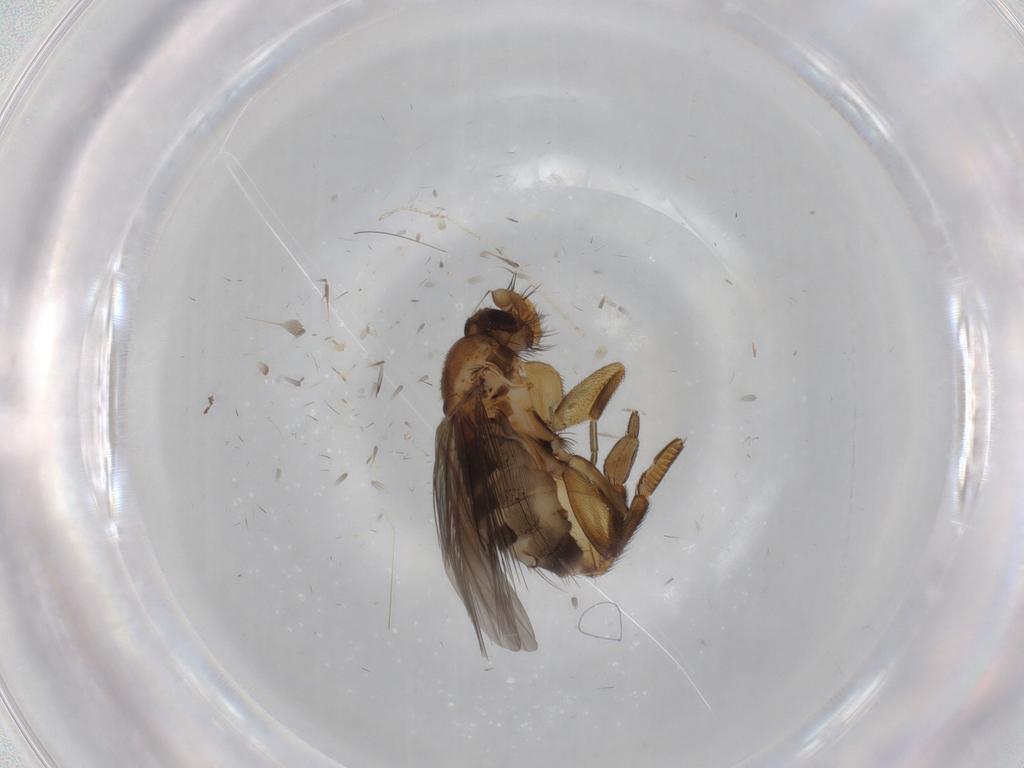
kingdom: Animalia
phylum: Arthropoda
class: Insecta
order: Diptera
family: Phoridae
